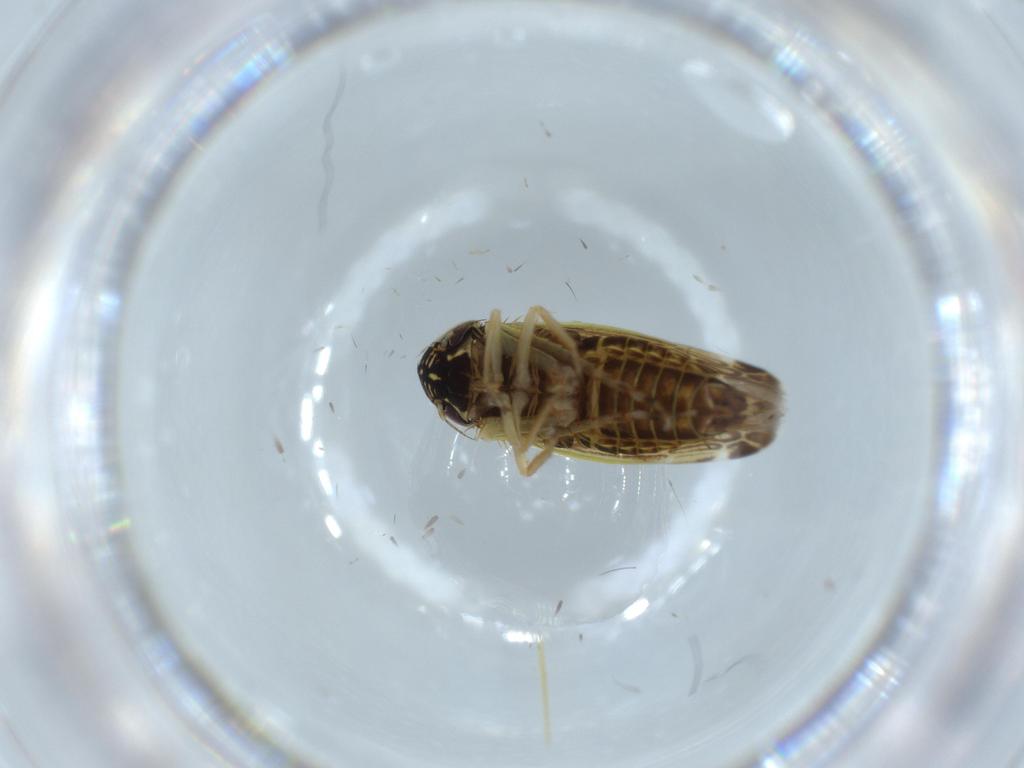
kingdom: Animalia
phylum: Arthropoda
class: Insecta
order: Hemiptera
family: Cicadellidae
